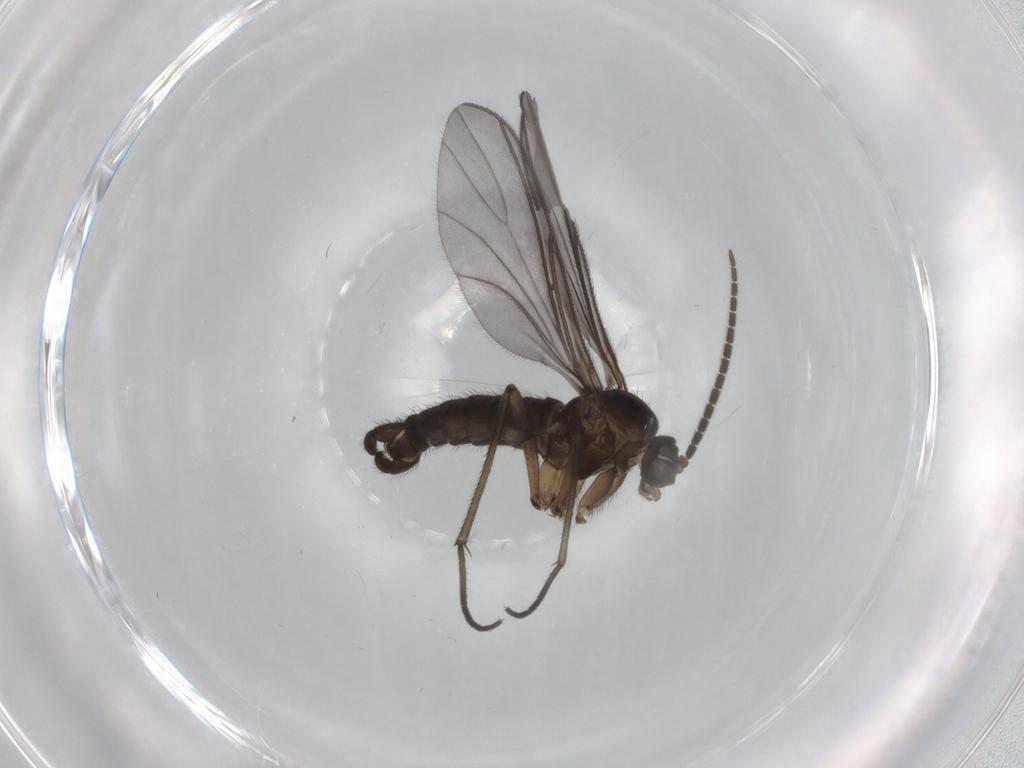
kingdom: Animalia
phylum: Arthropoda
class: Insecta
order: Diptera
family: Sciaridae
